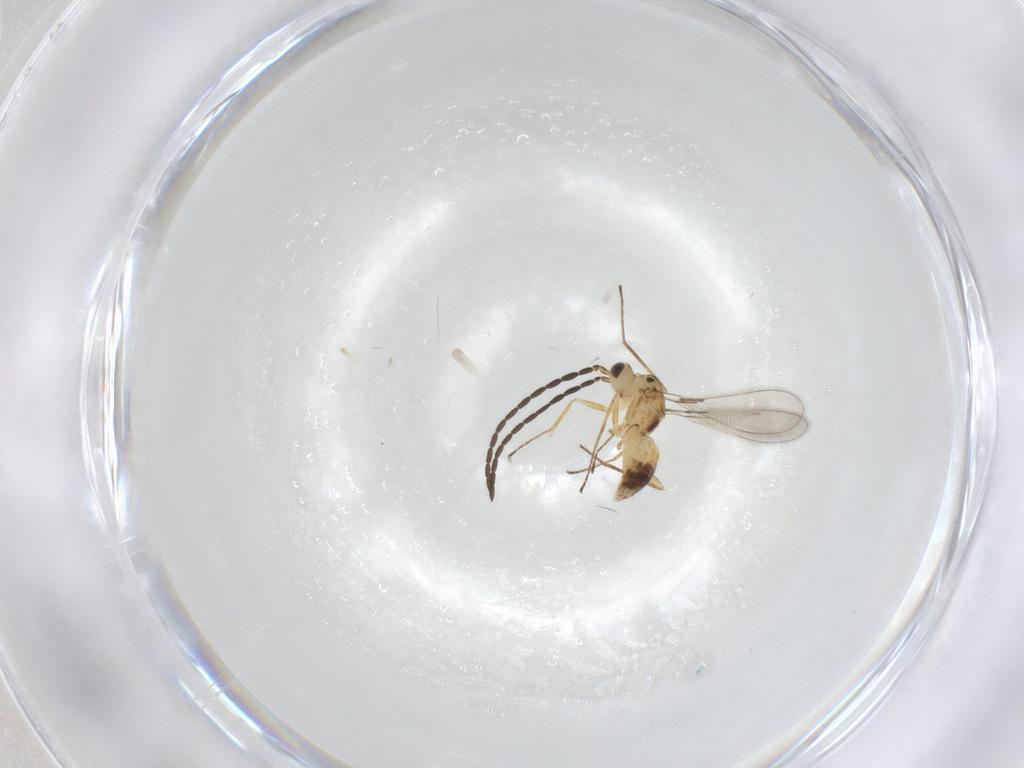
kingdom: Animalia
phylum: Arthropoda
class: Insecta
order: Hymenoptera
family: Mymaridae
